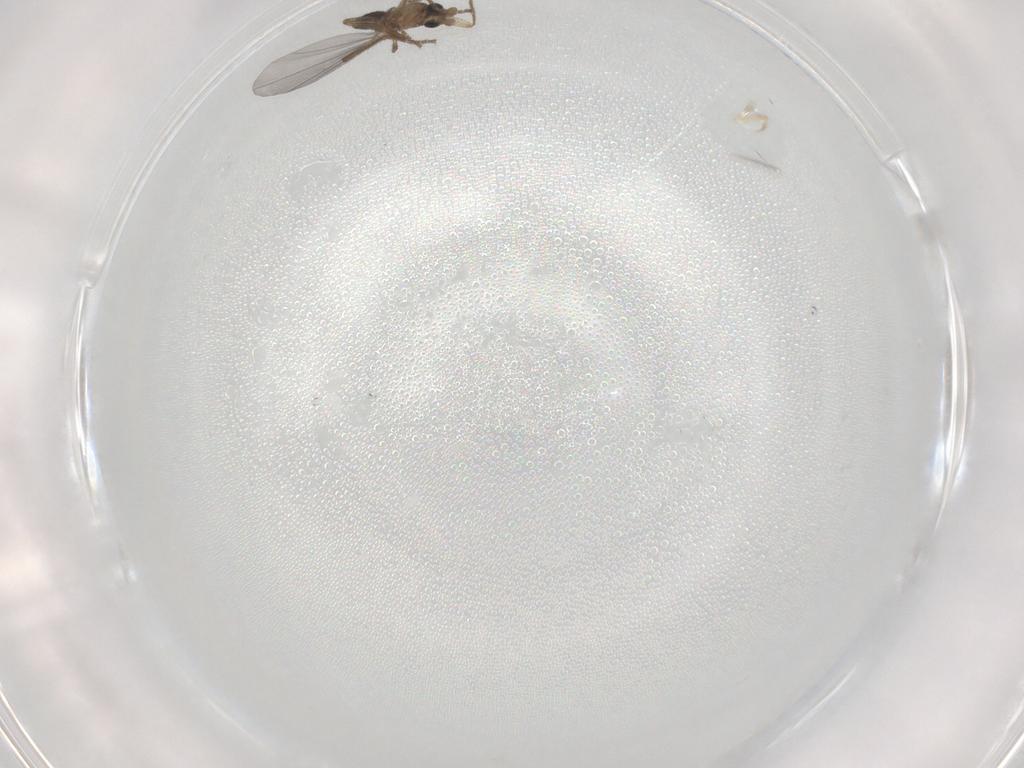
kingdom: Animalia
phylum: Arthropoda
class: Insecta
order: Diptera
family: Phoridae
